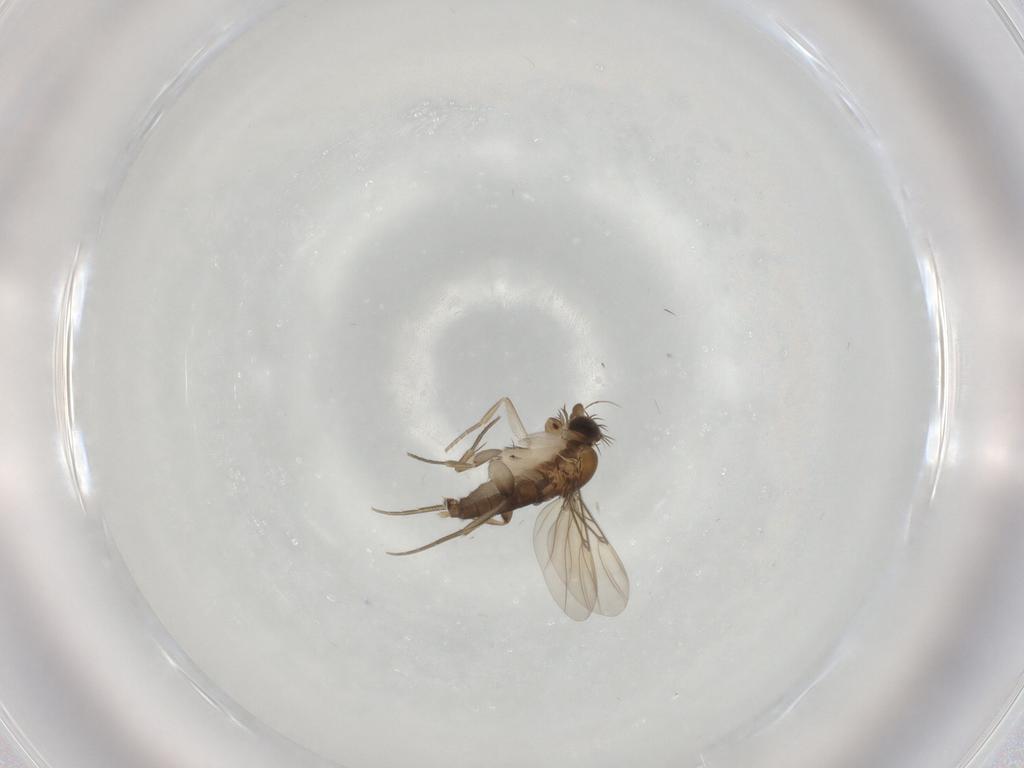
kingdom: Animalia
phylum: Arthropoda
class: Insecta
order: Diptera
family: Phoridae
